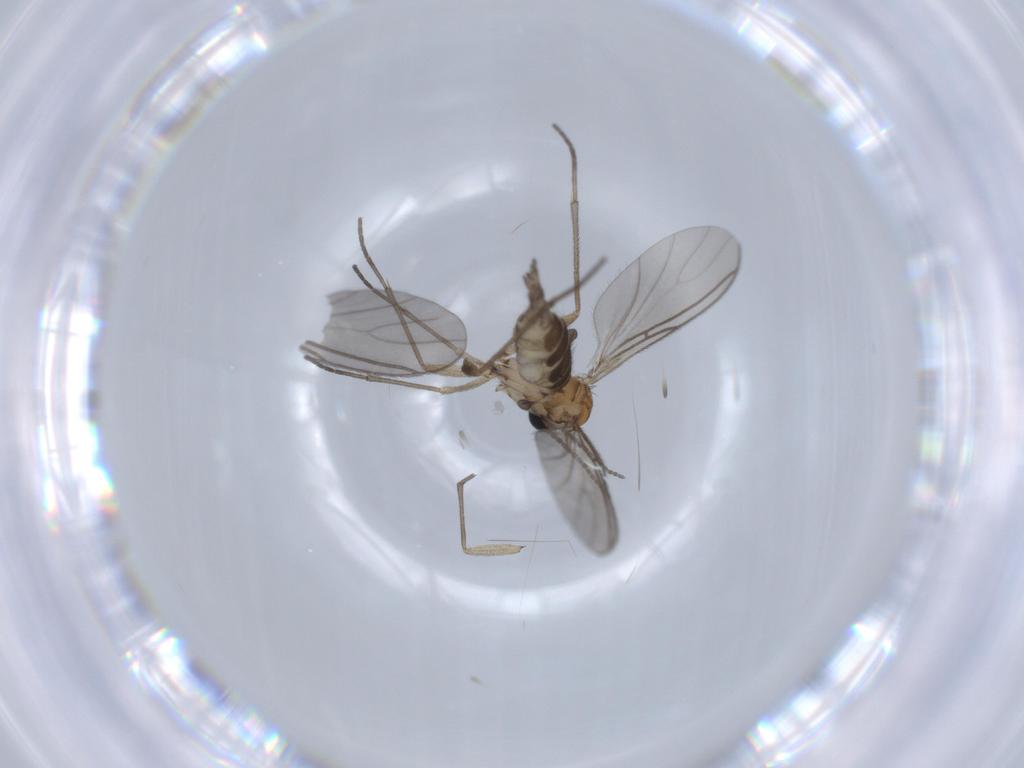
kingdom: Animalia
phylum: Arthropoda
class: Insecta
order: Diptera
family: Sciaridae
